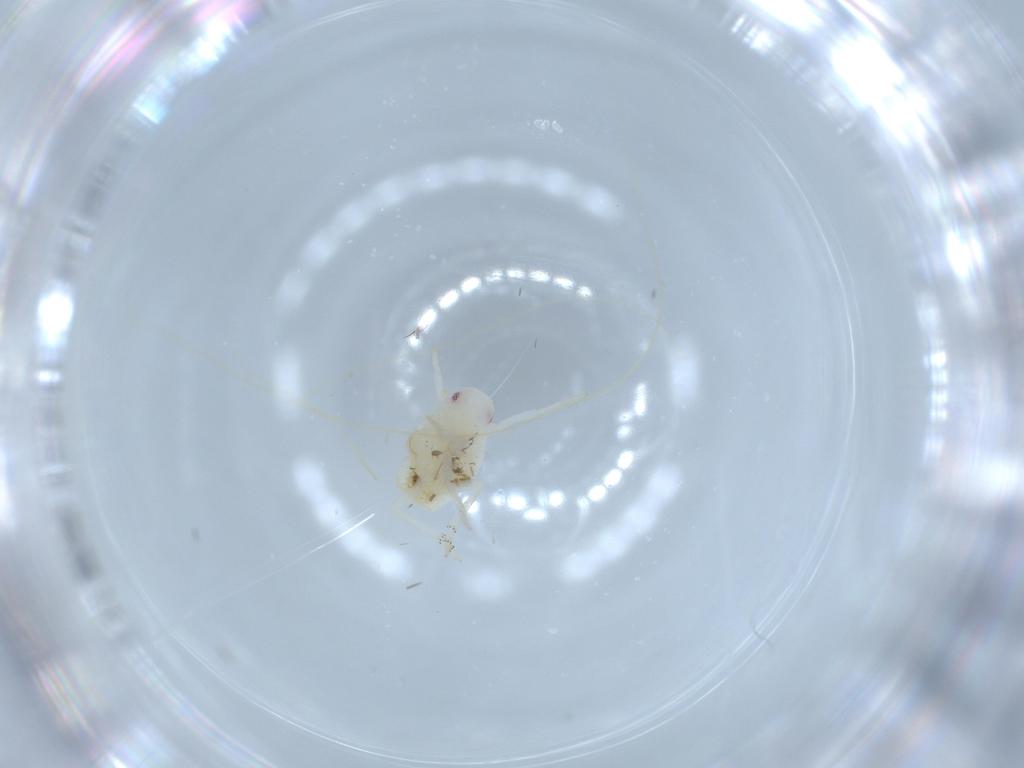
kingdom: Animalia
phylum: Arthropoda
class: Insecta
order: Hemiptera
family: Flatidae
